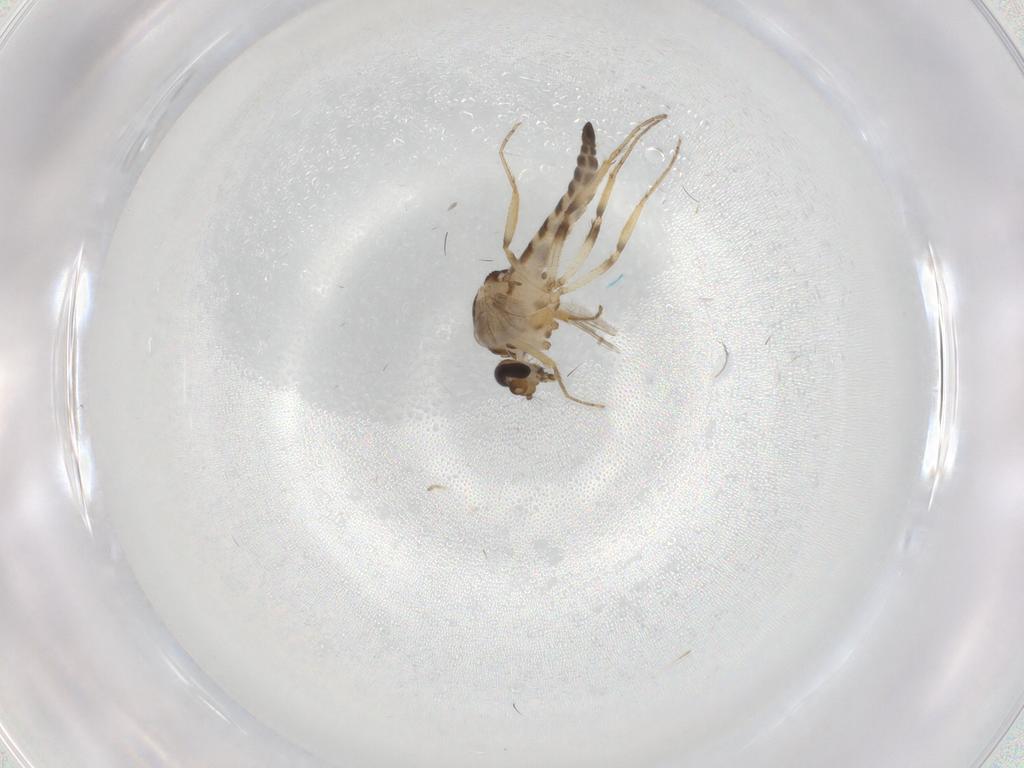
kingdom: Animalia
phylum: Arthropoda
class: Insecta
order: Diptera
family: Ceratopogonidae
